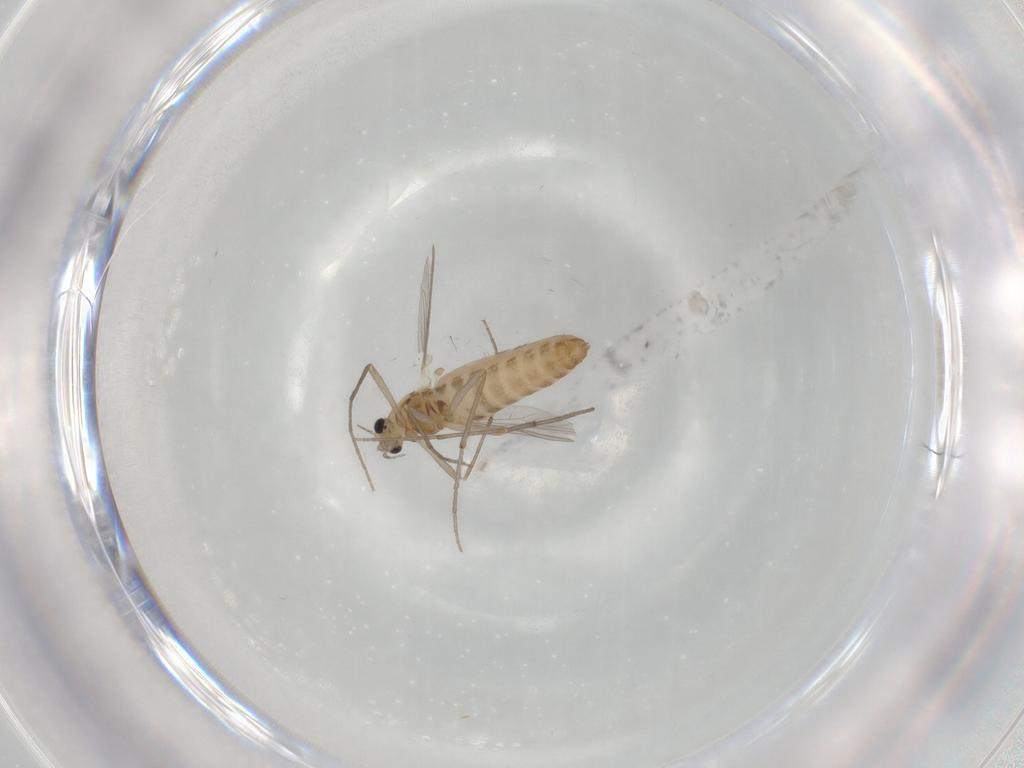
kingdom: Animalia
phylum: Arthropoda
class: Insecta
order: Diptera
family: Chironomidae
